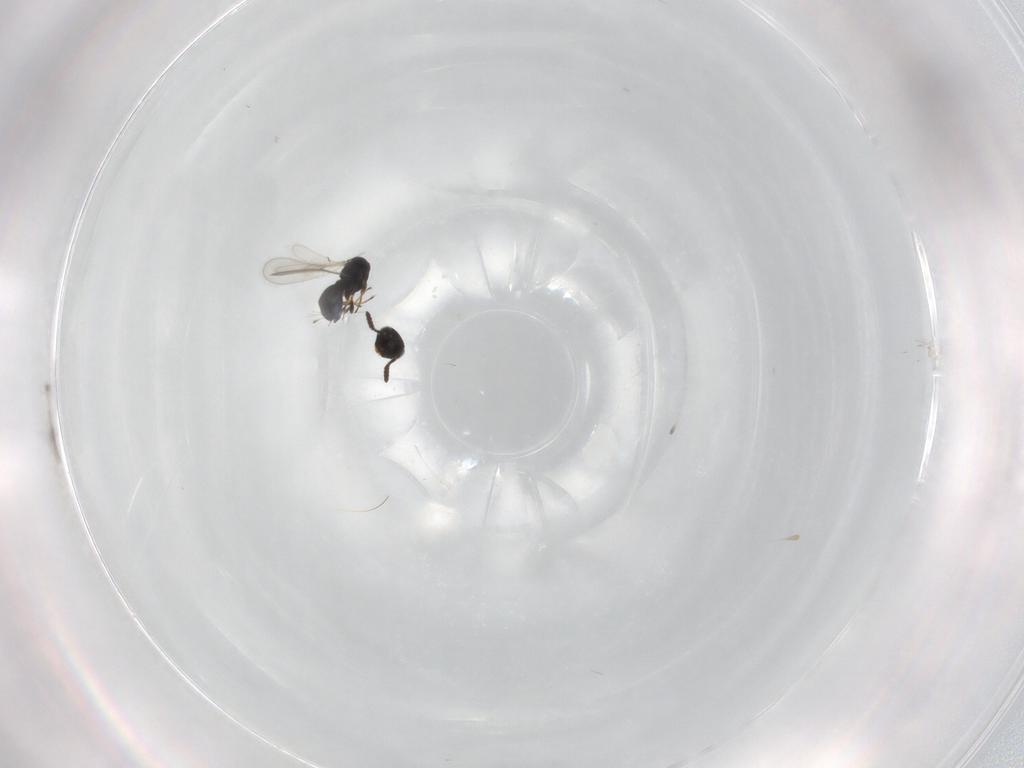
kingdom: Animalia
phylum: Arthropoda
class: Insecta
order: Hymenoptera
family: Scelionidae
